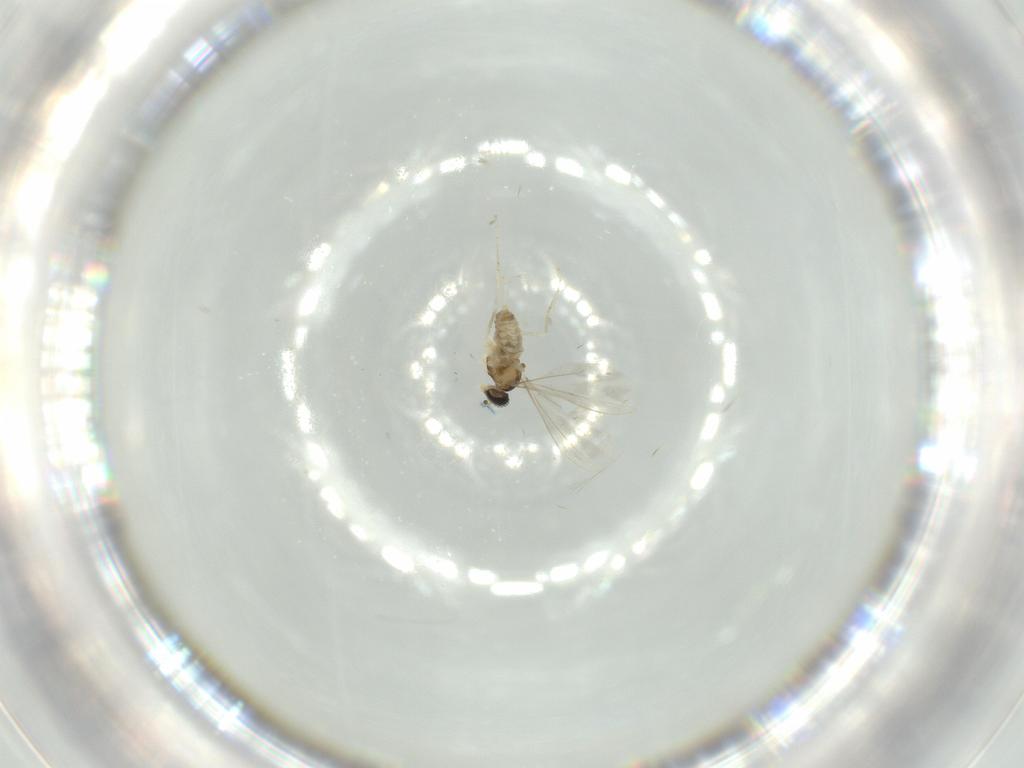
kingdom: Animalia
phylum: Arthropoda
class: Insecta
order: Diptera
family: Cecidomyiidae
